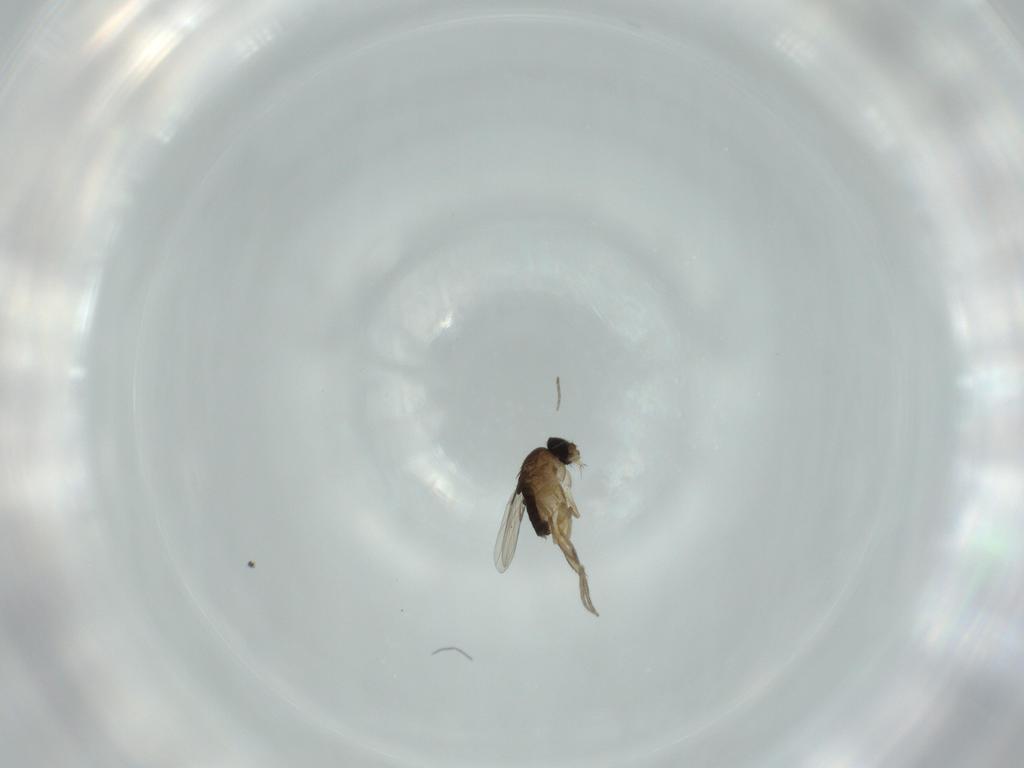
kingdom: Animalia
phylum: Arthropoda
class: Insecta
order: Diptera
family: Phoridae
